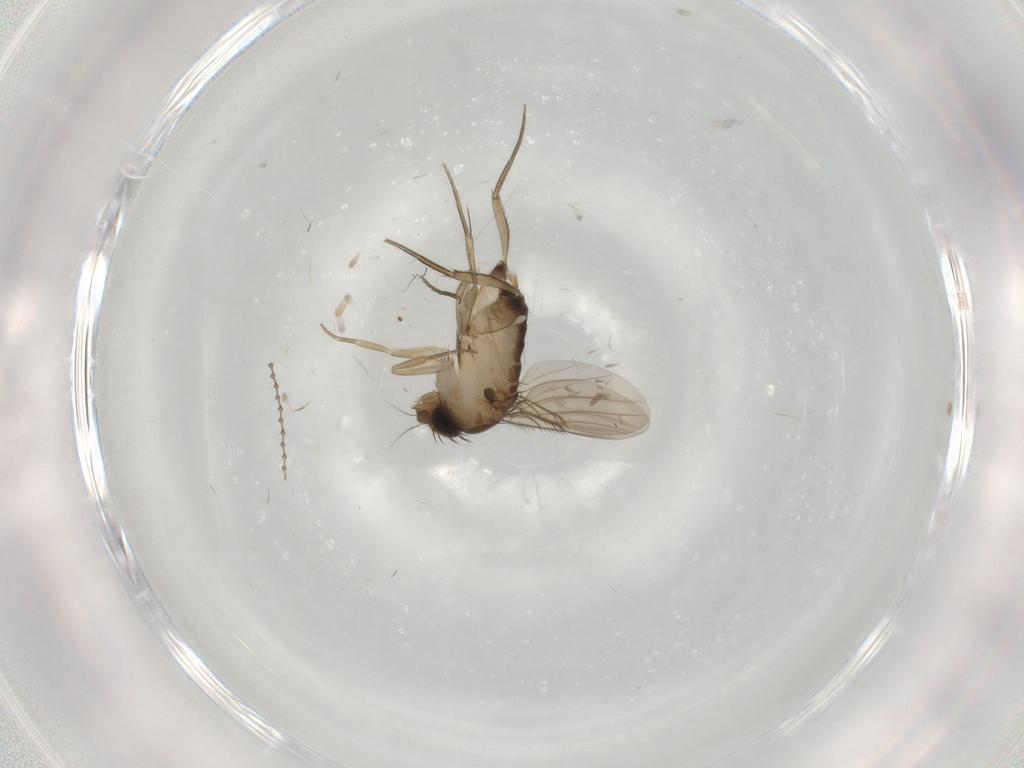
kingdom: Animalia
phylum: Arthropoda
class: Insecta
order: Diptera
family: Phoridae
